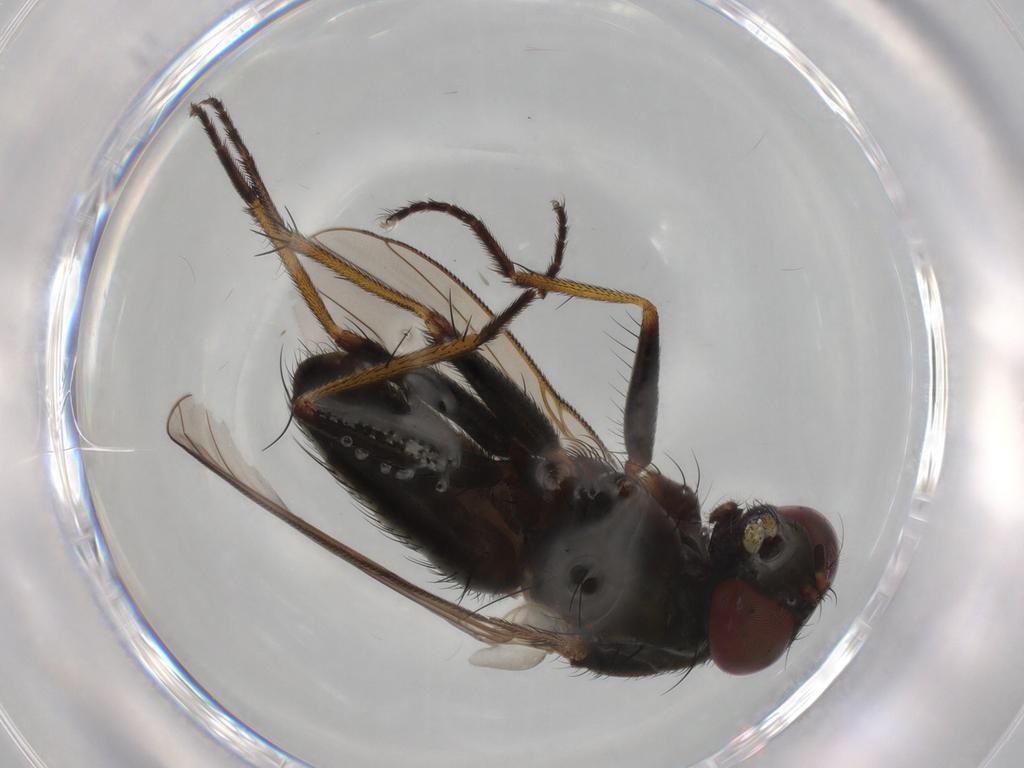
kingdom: Animalia
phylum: Arthropoda
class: Insecta
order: Diptera
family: Muscidae
